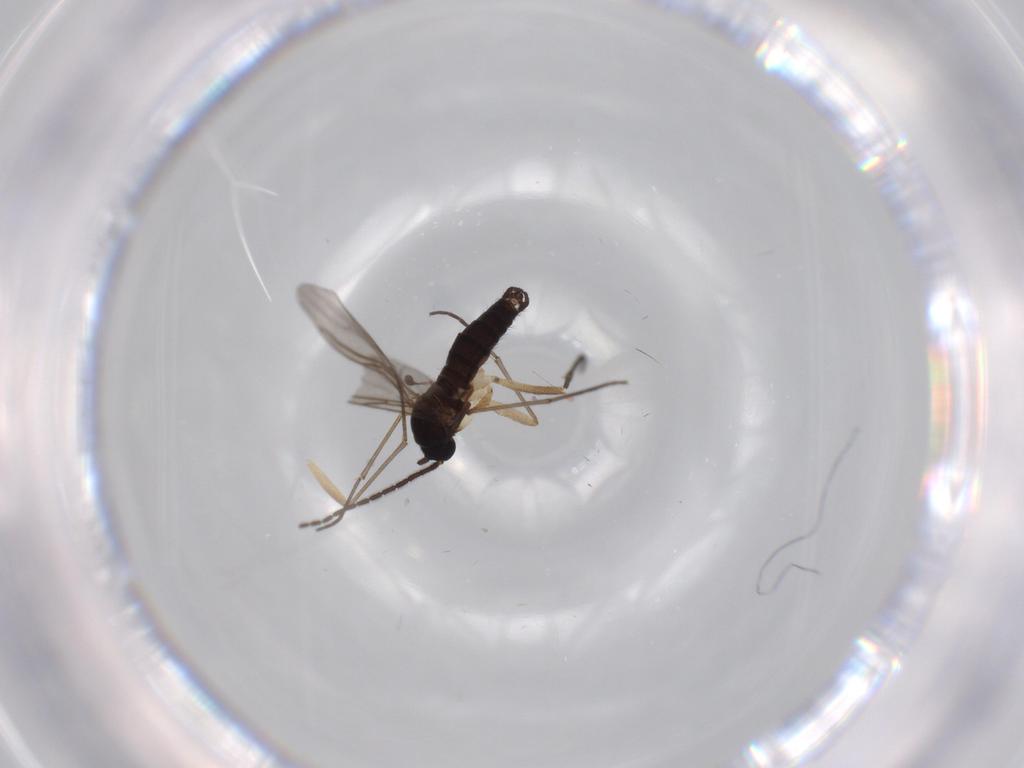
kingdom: Animalia
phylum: Arthropoda
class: Insecta
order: Diptera
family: Sciaridae
